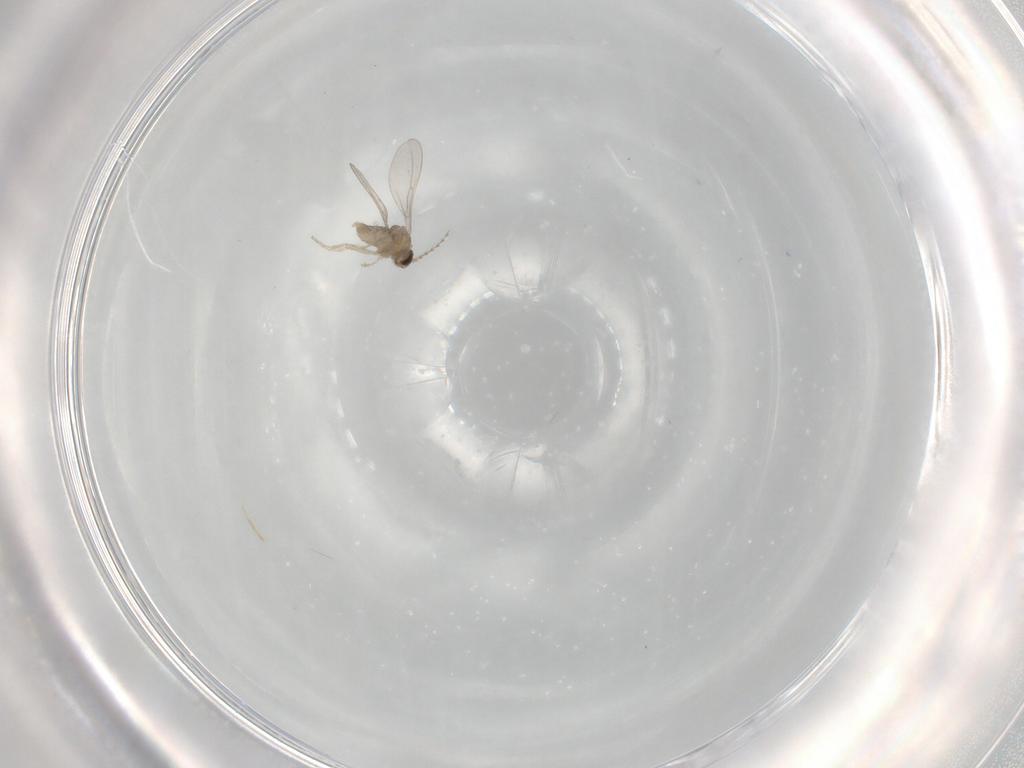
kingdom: Animalia
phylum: Arthropoda
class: Insecta
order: Diptera
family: Cecidomyiidae
